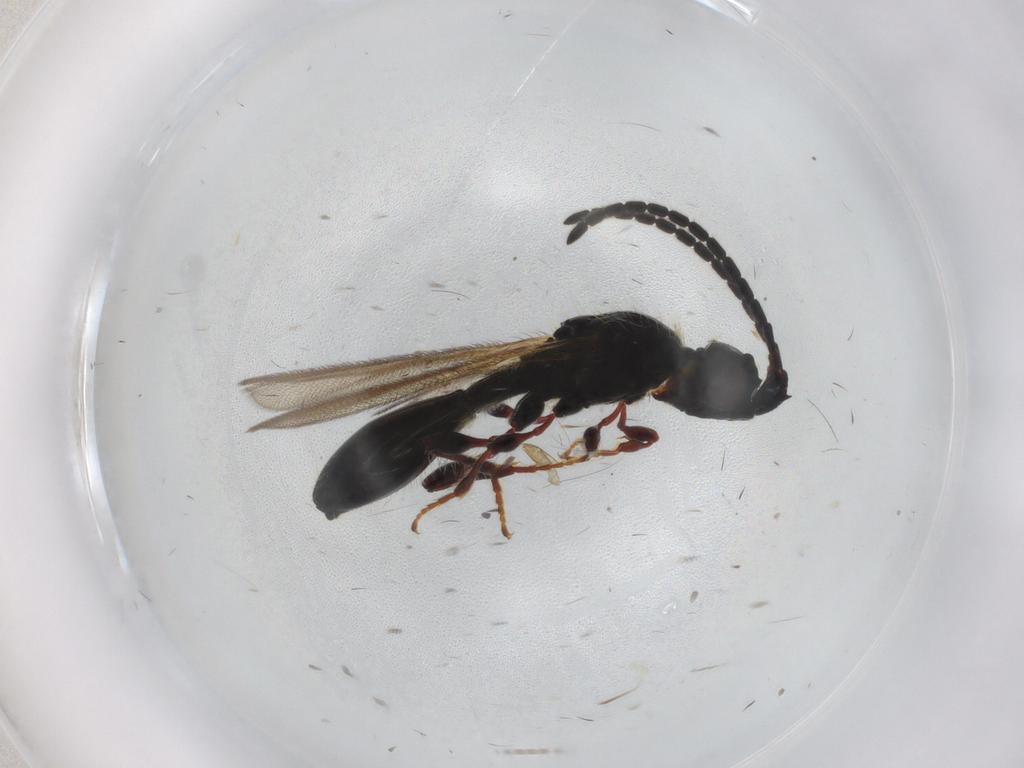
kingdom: Animalia
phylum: Arthropoda
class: Insecta
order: Hymenoptera
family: Diapriidae
